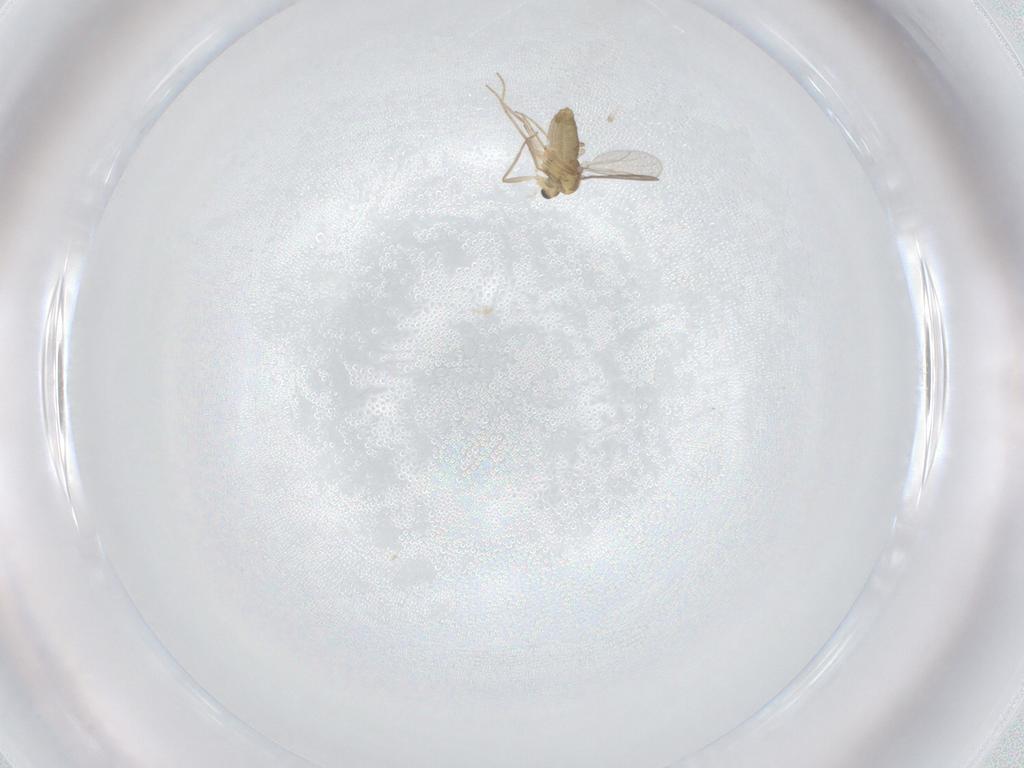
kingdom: Animalia
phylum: Arthropoda
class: Insecta
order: Diptera
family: Chironomidae
